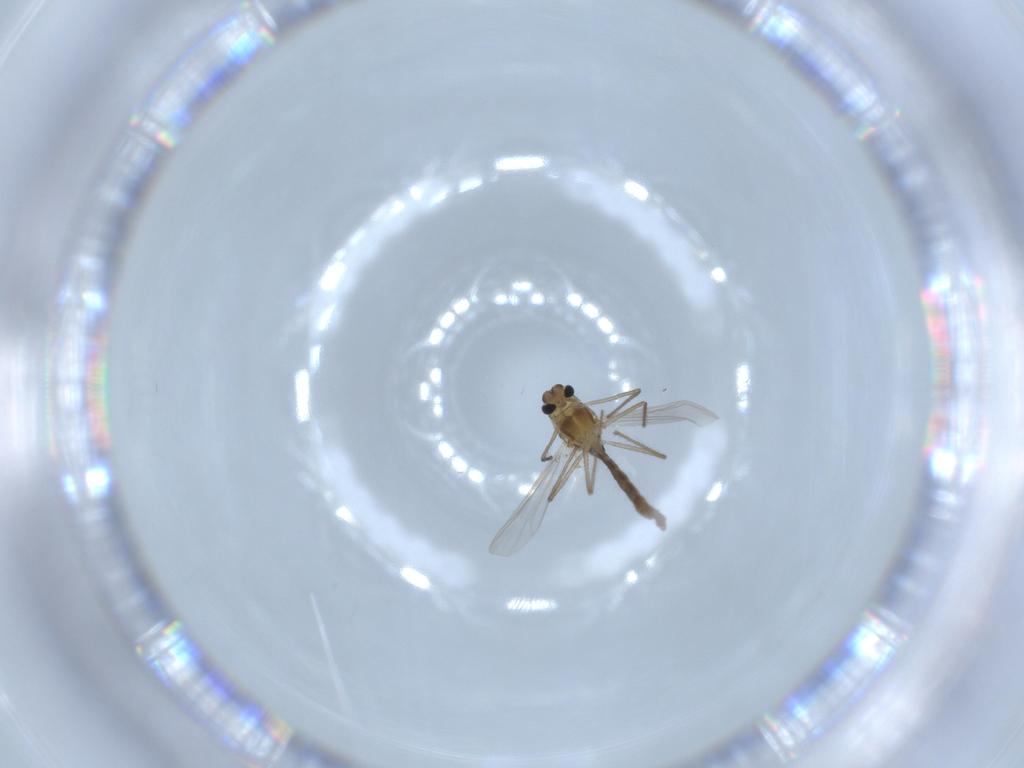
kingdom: Animalia
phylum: Arthropoda
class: Insecta
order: Diptera
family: Chironomidae
